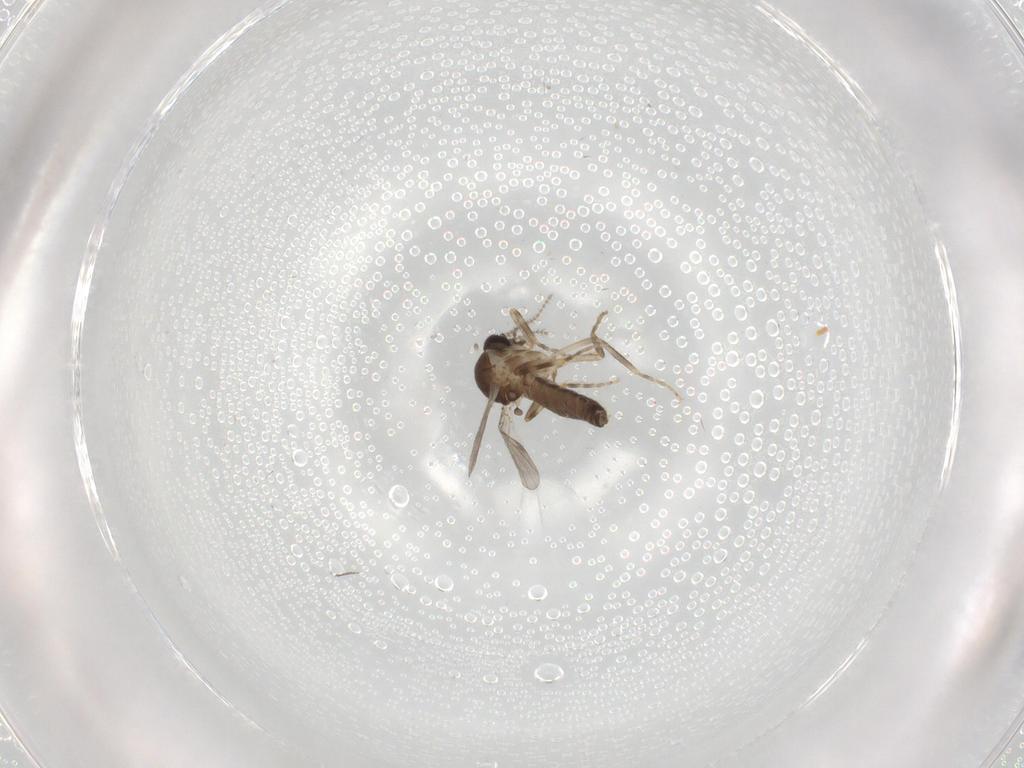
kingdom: Animalia
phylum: Arthropoda
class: Insecta
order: Diptera
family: Ceratopogonidae
